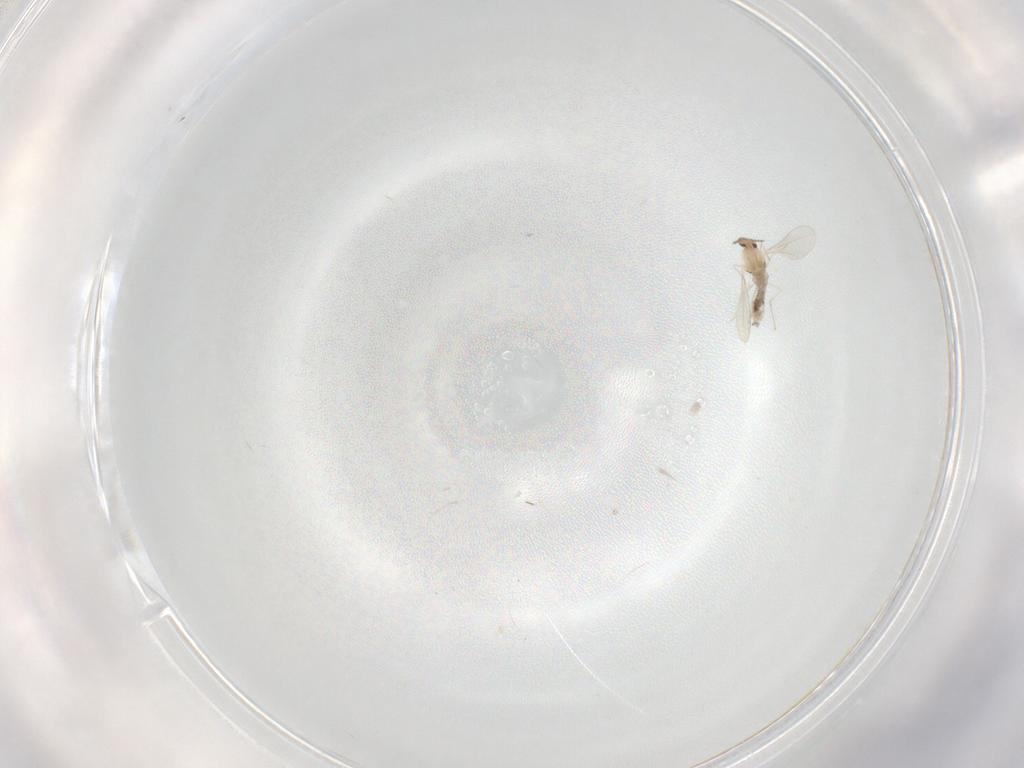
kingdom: Animalia
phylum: Arthropoda
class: Insecta
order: Diptera
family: Cecidomyiidae
